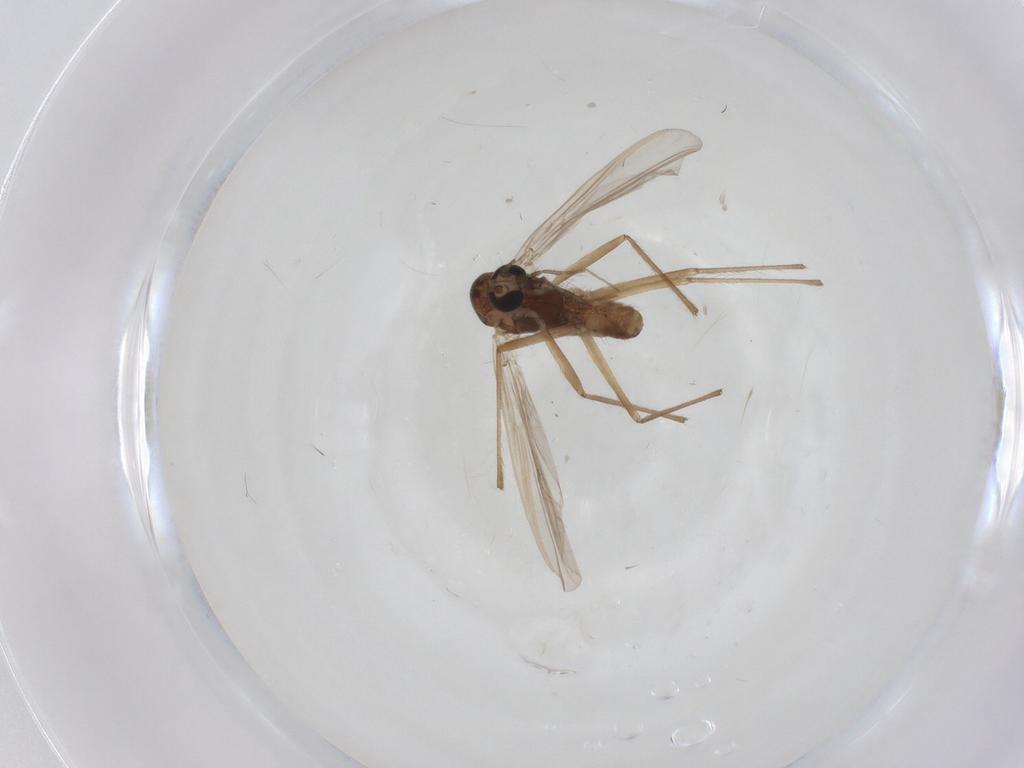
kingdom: Animalia
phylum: Arthropoda
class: Insecta
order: Diptera
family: Chironomidae
